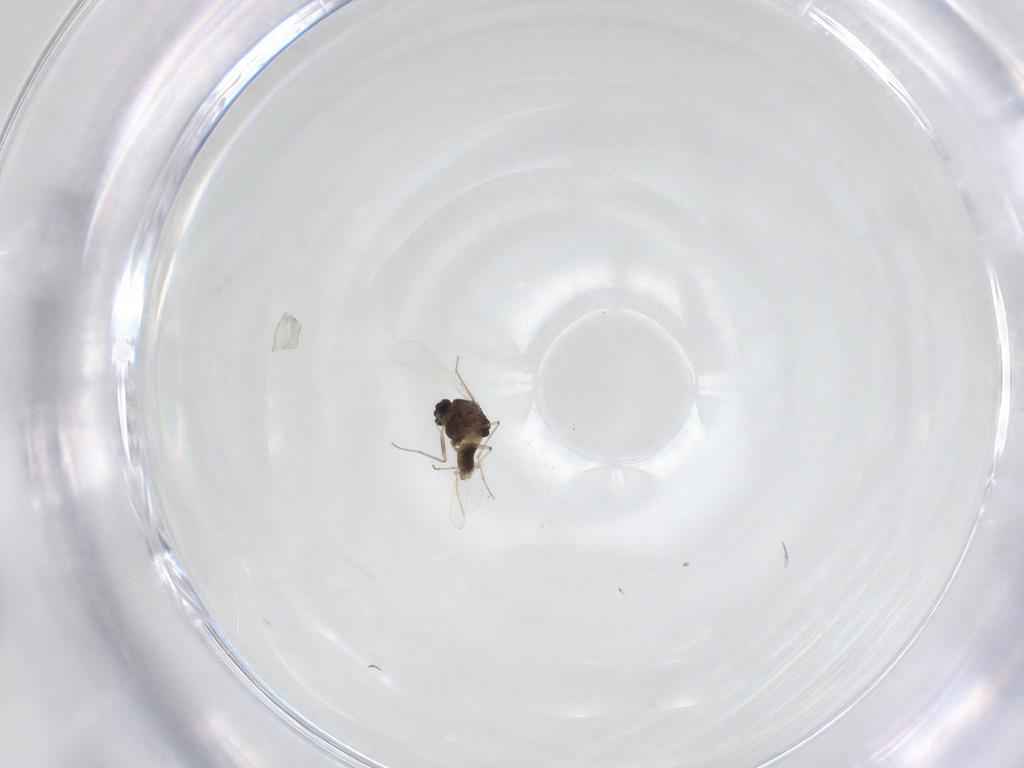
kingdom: Animalia
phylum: Arthropoda
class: Insecta
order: Diptera
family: Chironomidae
